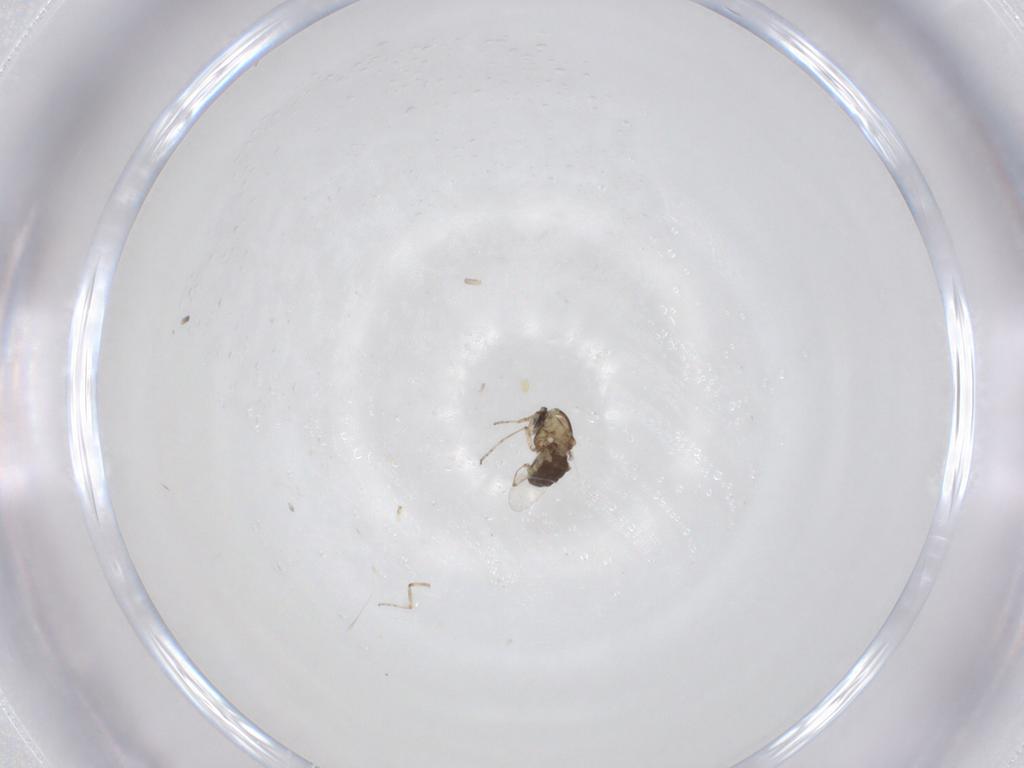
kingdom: Animalia
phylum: Arthropoda
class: Insecta
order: Diptera
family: Ceratopogonidae
